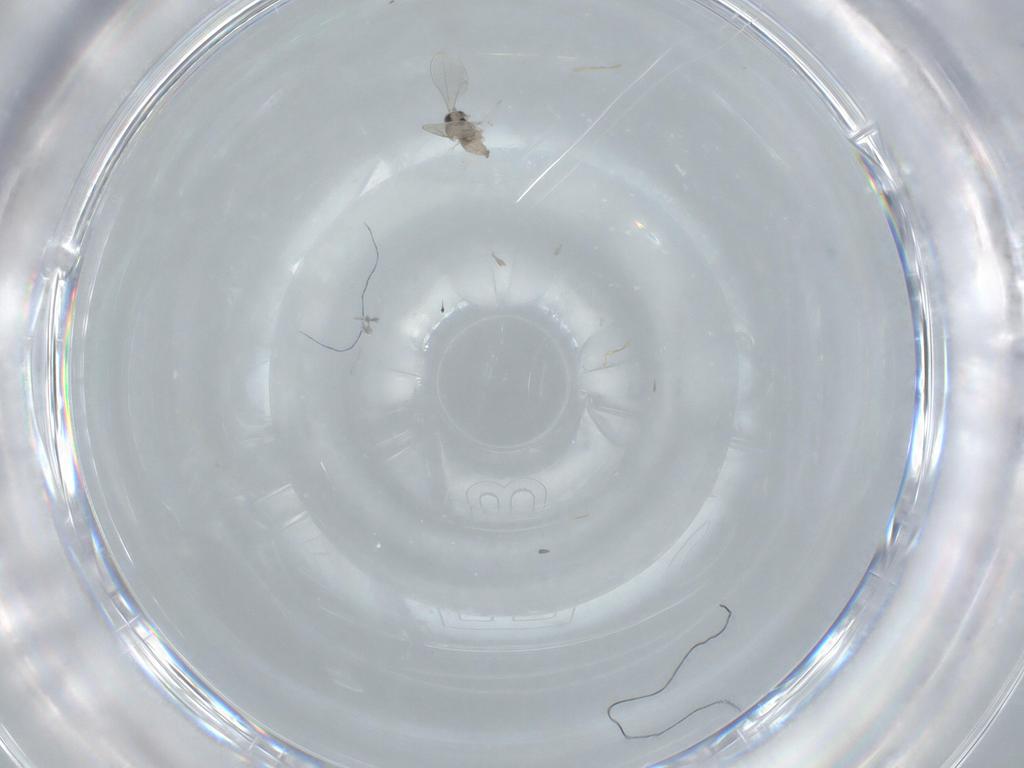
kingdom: Animalia
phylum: Arthropoda
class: Insecta
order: Diptera
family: Cecidomyiidae
